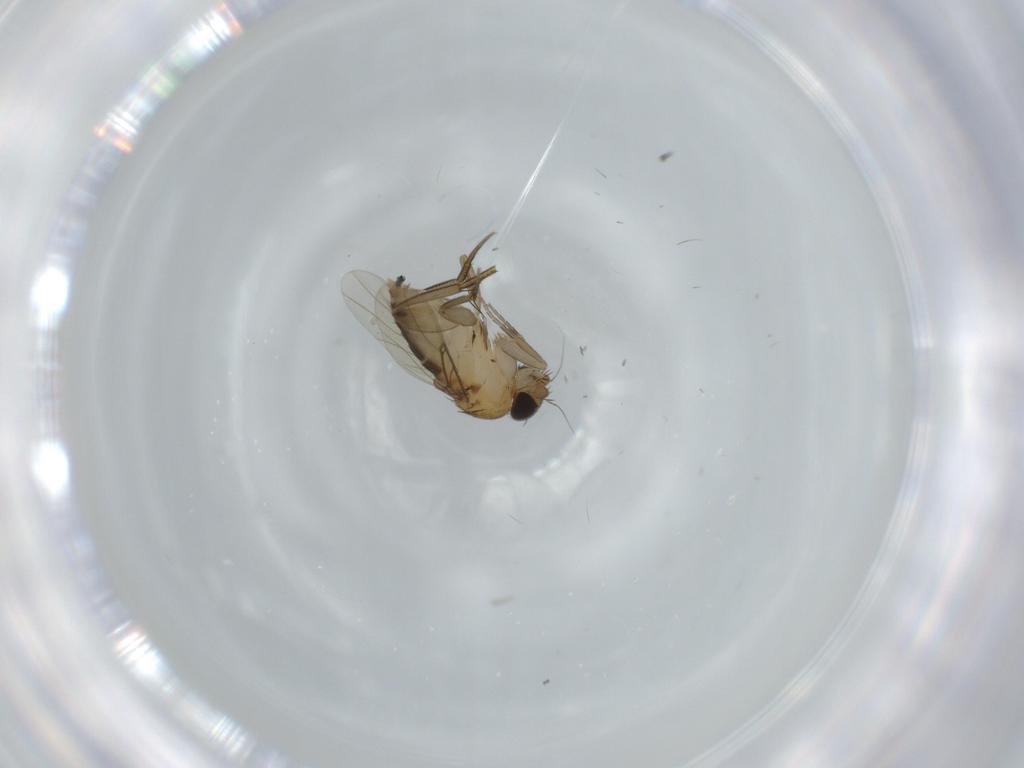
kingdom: Animalia
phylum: Arthropoda
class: Insecta
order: Diptera
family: Phoridae
